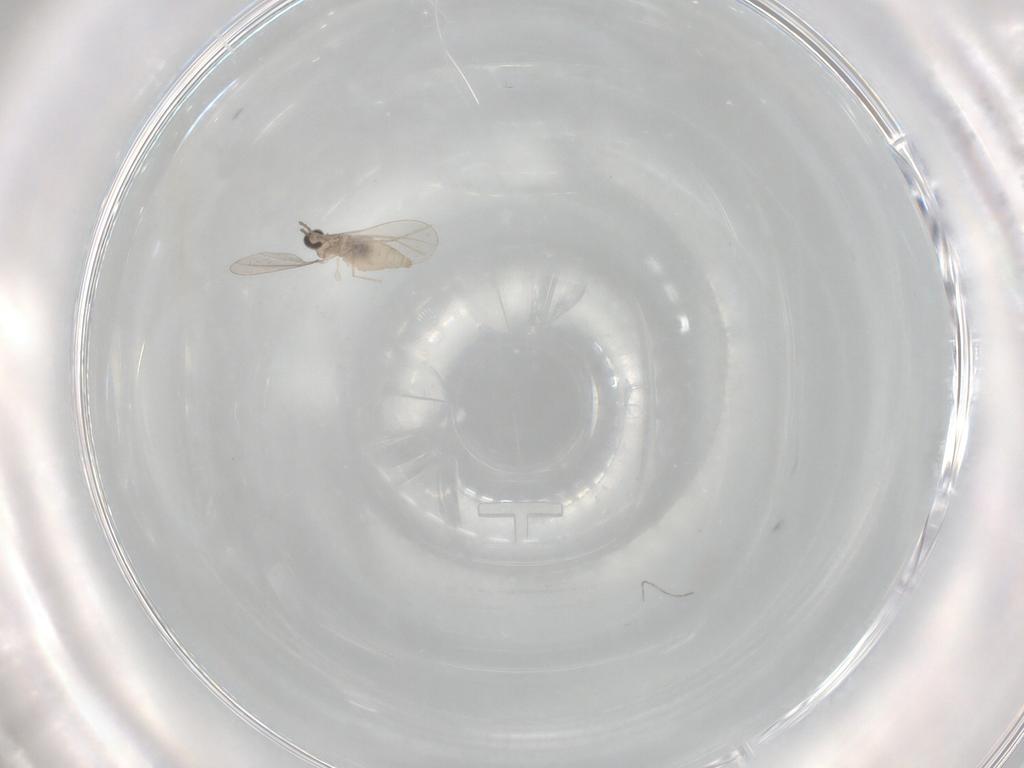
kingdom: Animalia
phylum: Arthropoda
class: Insecta
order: Diptera
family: Cecidomyiidae
